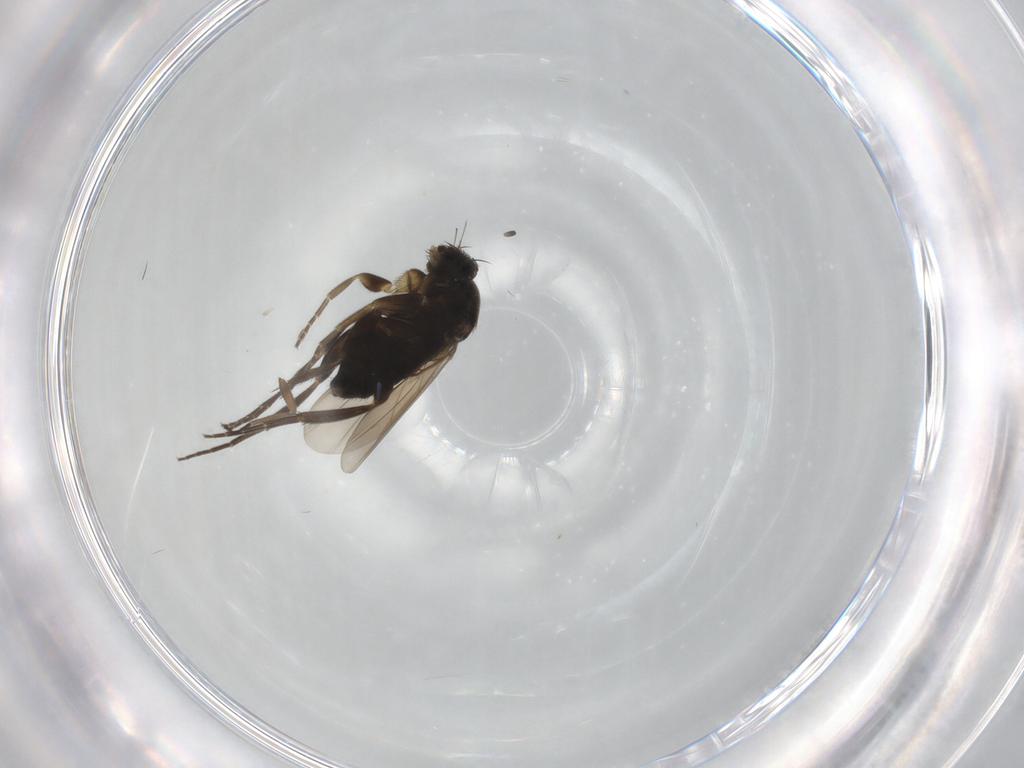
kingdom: Animalia
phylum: Arthropoda
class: Insecta
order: Diptera
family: Phoridae
